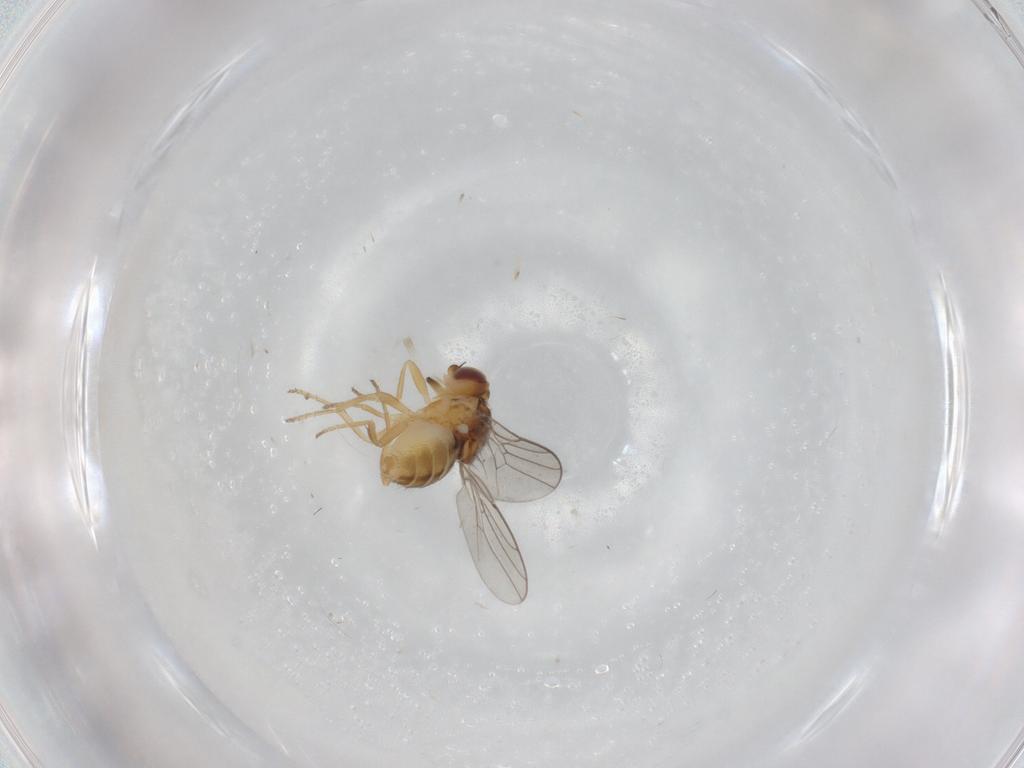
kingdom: Animalia
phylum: Arthropoda
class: Insecta
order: Diptera
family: Chloropidae
